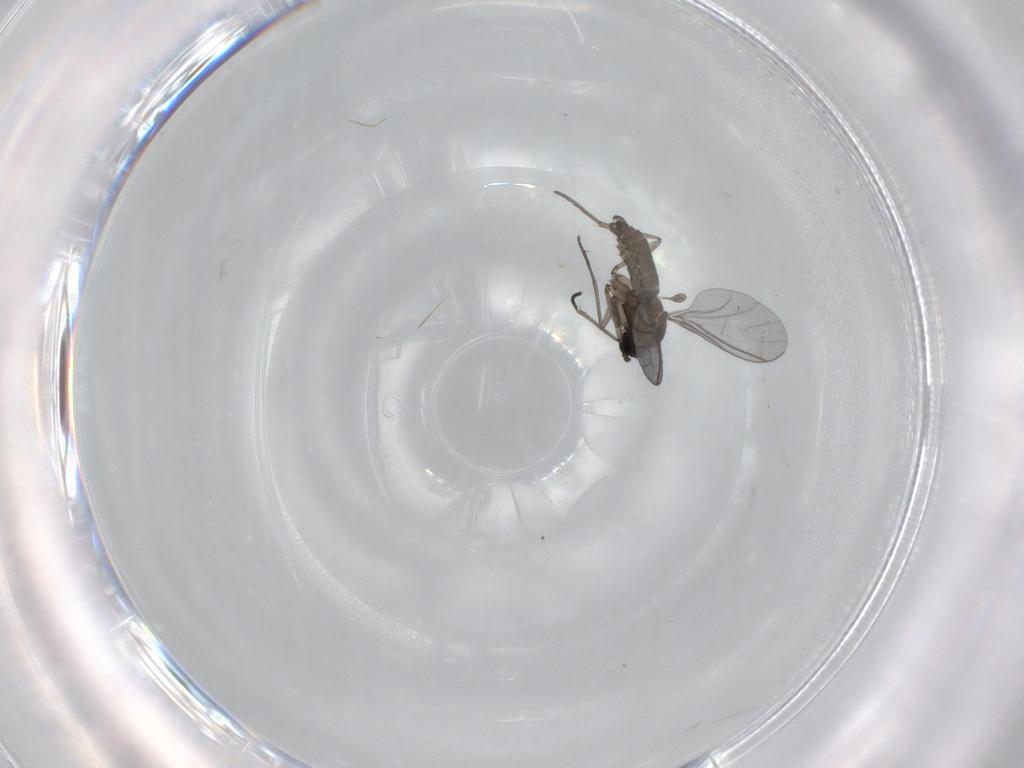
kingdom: Animalia
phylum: Arthropoda
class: Insecta
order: Diptera
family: Sciaridae
